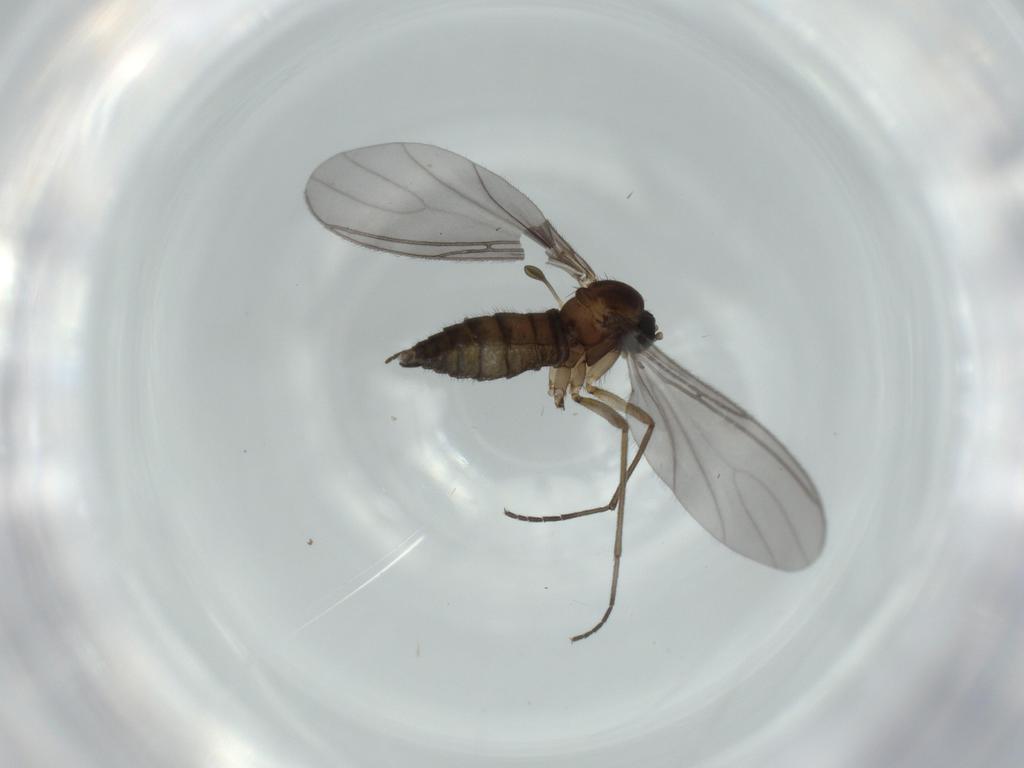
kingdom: Animalia
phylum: Arthropoda
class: Insecta
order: Diptera
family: Sciaridae
